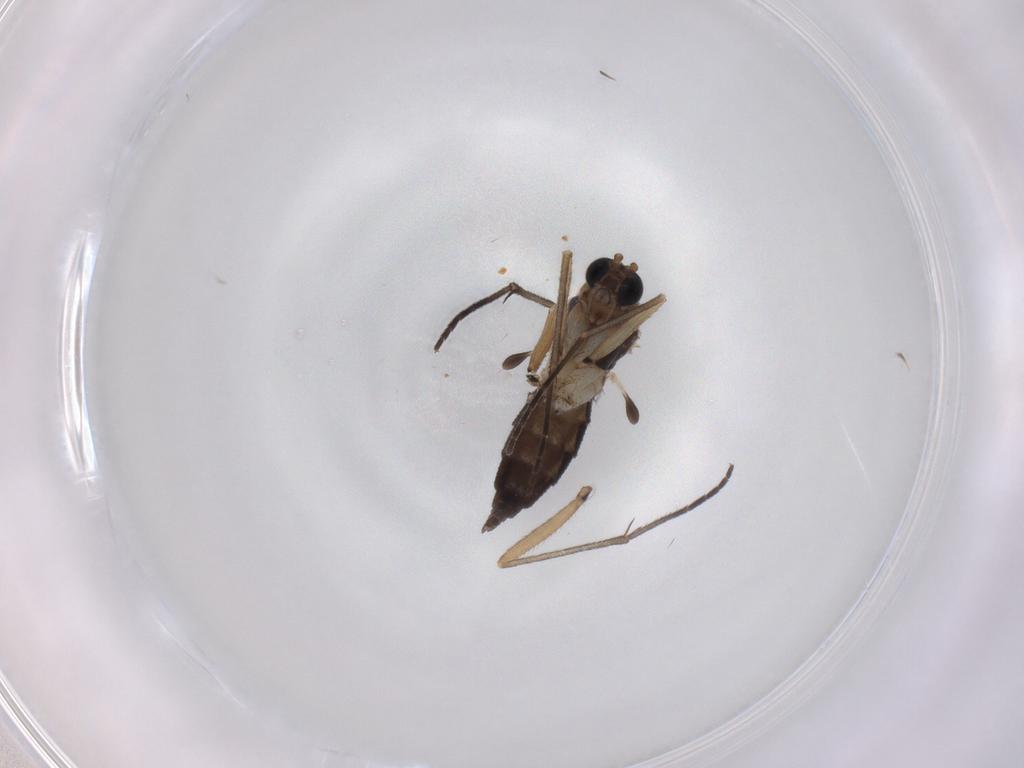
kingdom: Animalia
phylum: Arthropoda
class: Insecta
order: Diptera
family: Sciaridae
